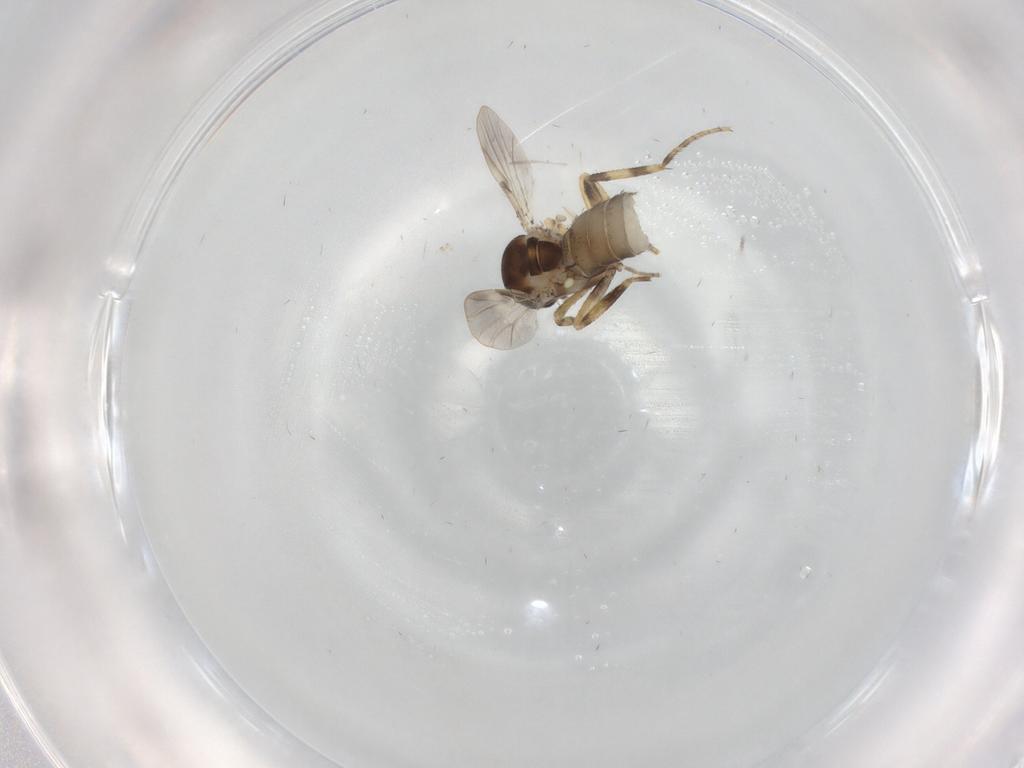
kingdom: Animalia
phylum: Arthropoda
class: Insecta
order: Diptera
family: Ceratopogonidae
